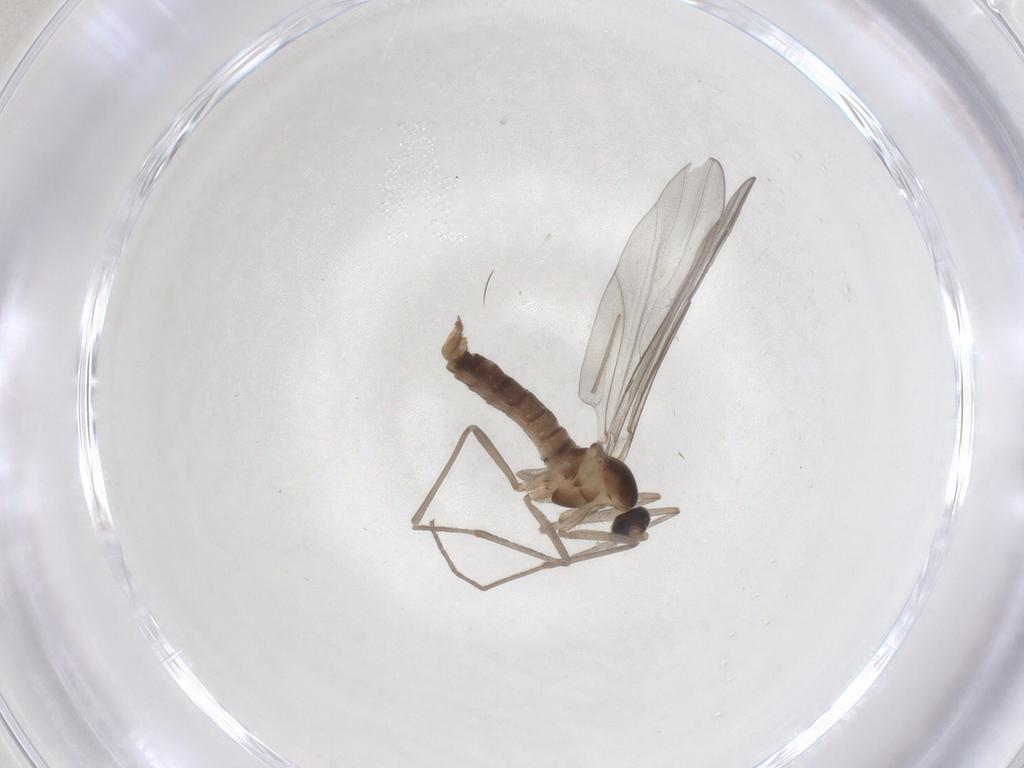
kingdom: Animalia
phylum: Arthropoda
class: Insecta
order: Diptera
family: Cecidomyiidae
